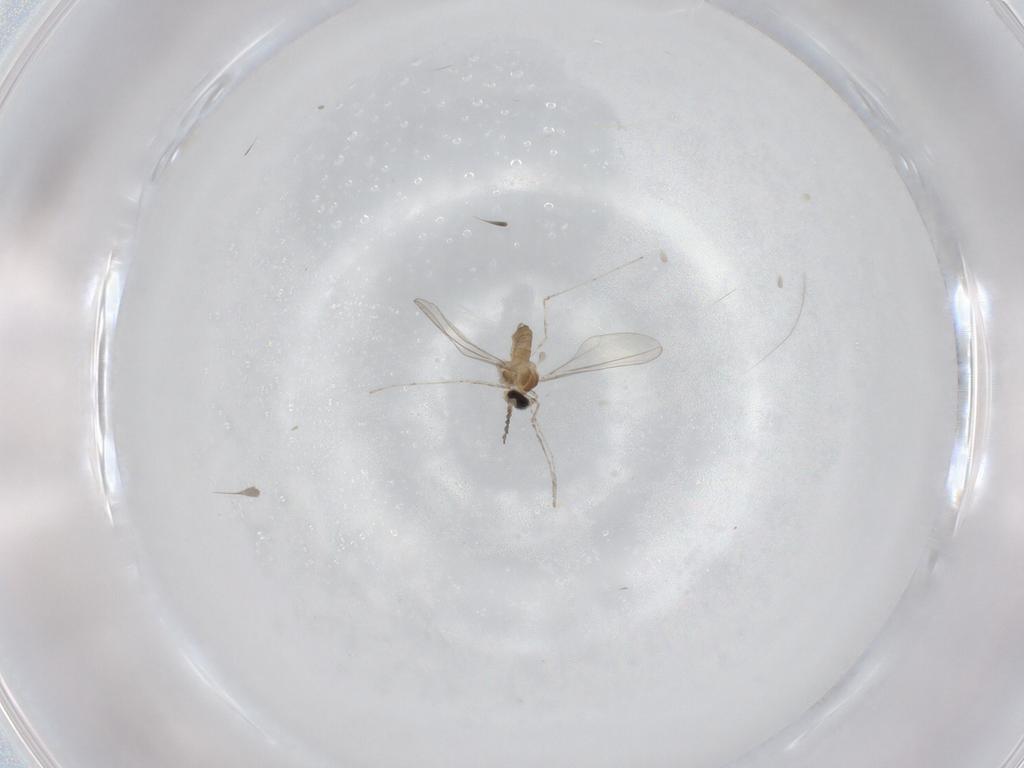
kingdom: Animalia
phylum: Arthropoda
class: Insecta
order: Diptera
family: Cecidomyiidae
